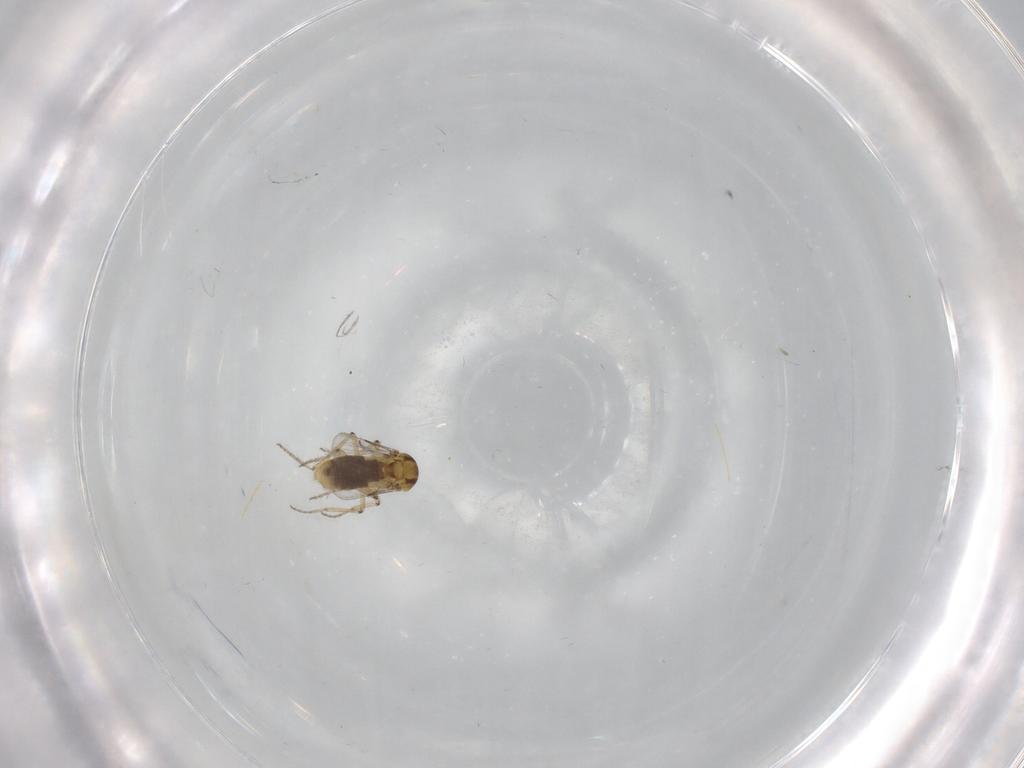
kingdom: Animalia
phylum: Arthropoda
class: Insecta
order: Diptera
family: Ceratopogonidae
